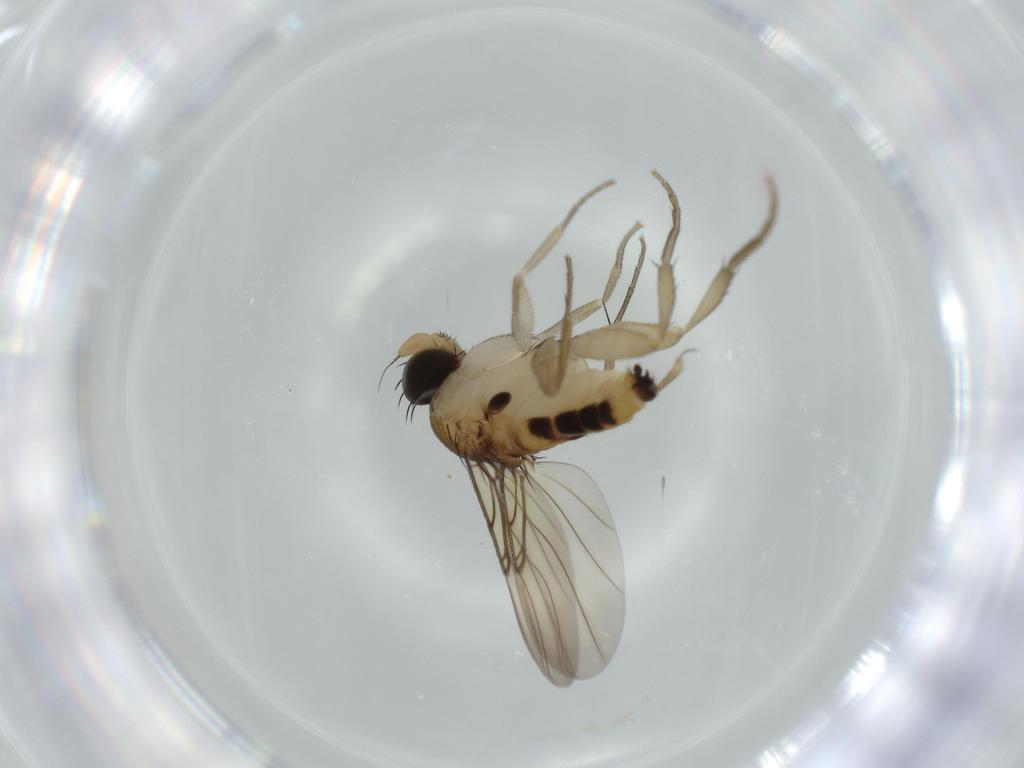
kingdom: Animalia
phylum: Arthropoda
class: Insecta
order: Diptera
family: Phoridae
